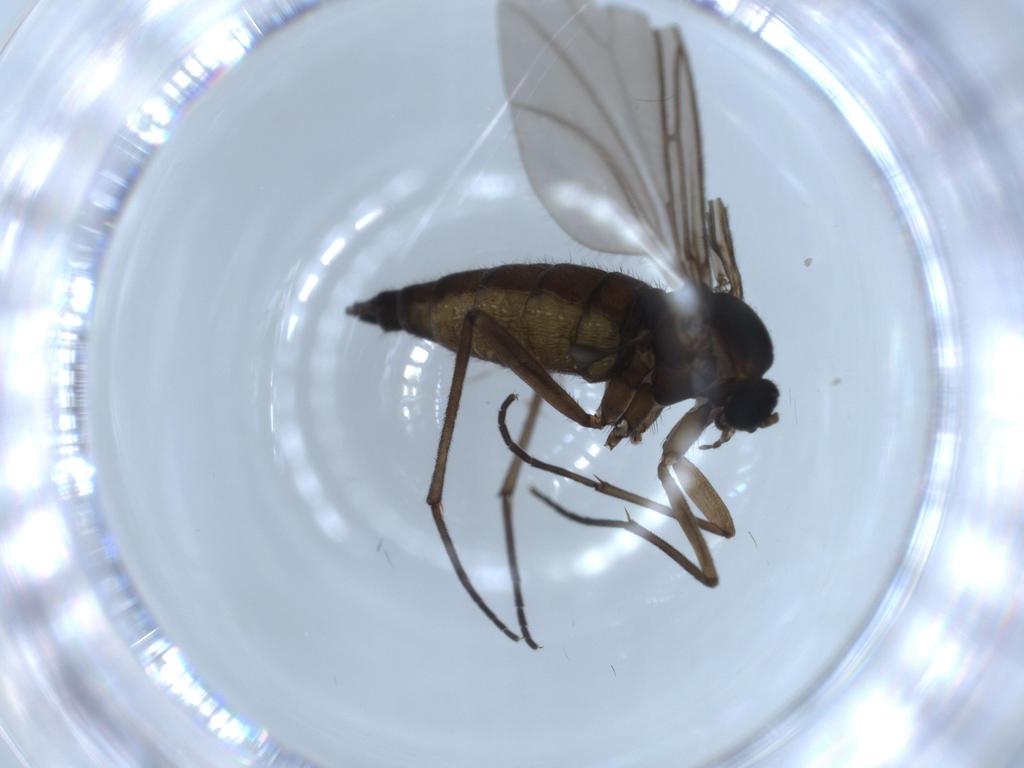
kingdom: Animalia
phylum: Arthropoda
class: Insecta
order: Diptera
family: Sciaridae
